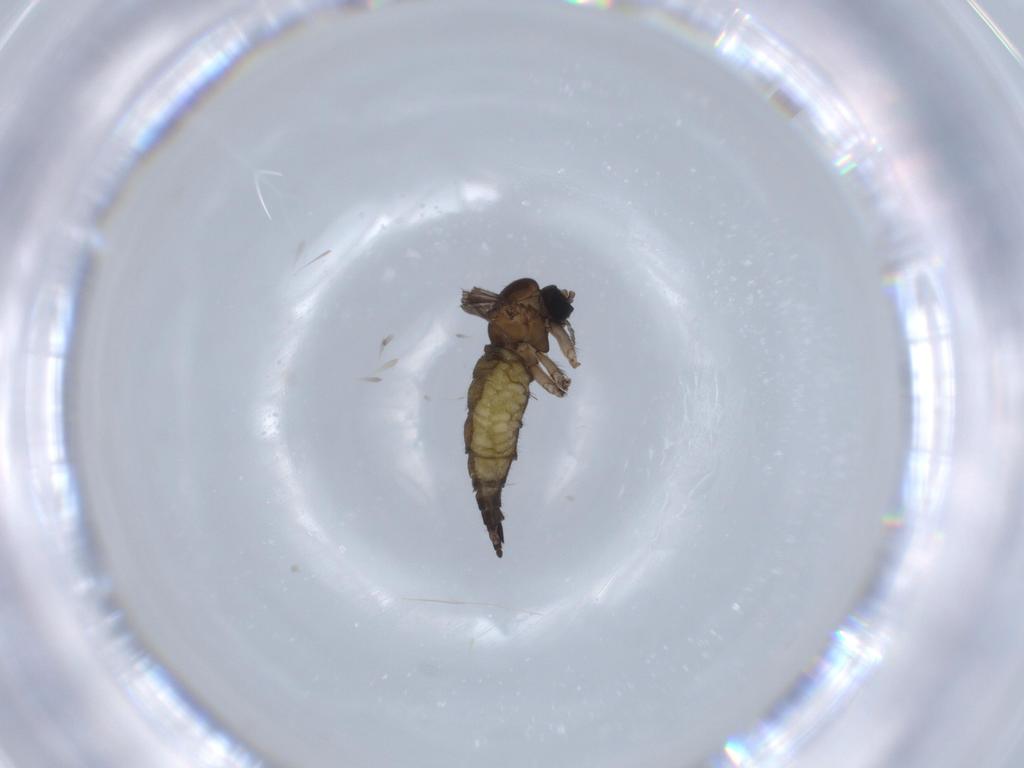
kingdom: Animalia
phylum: Arthropoda
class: Insecta
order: Diptera
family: Sciaridae
